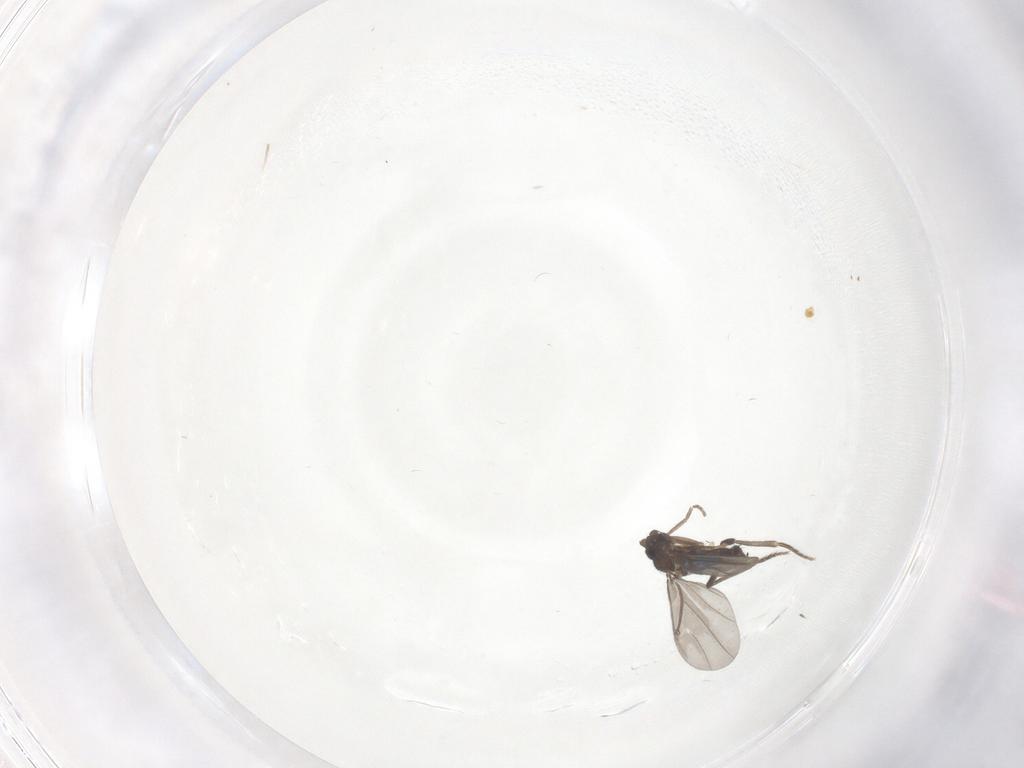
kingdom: Animalia
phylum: Arthropoda
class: Insecta
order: Diptera
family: Phoridae
